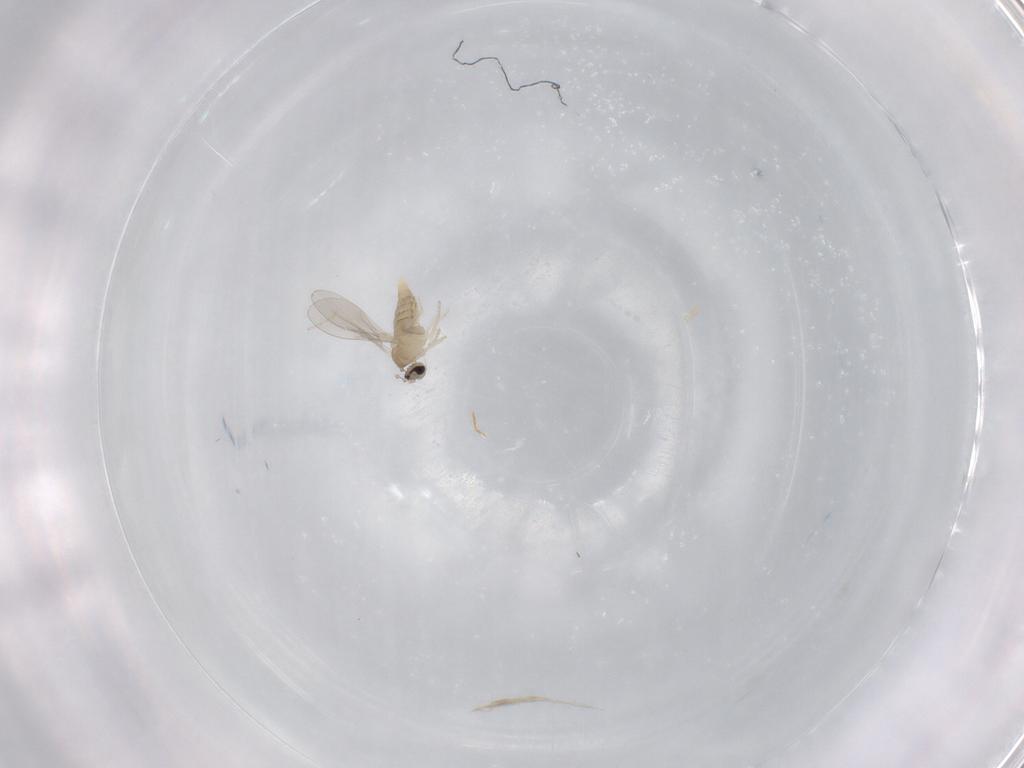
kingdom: Animalia
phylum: Arthropoda
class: Insecta
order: Diptera
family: Cecidomyiidae
